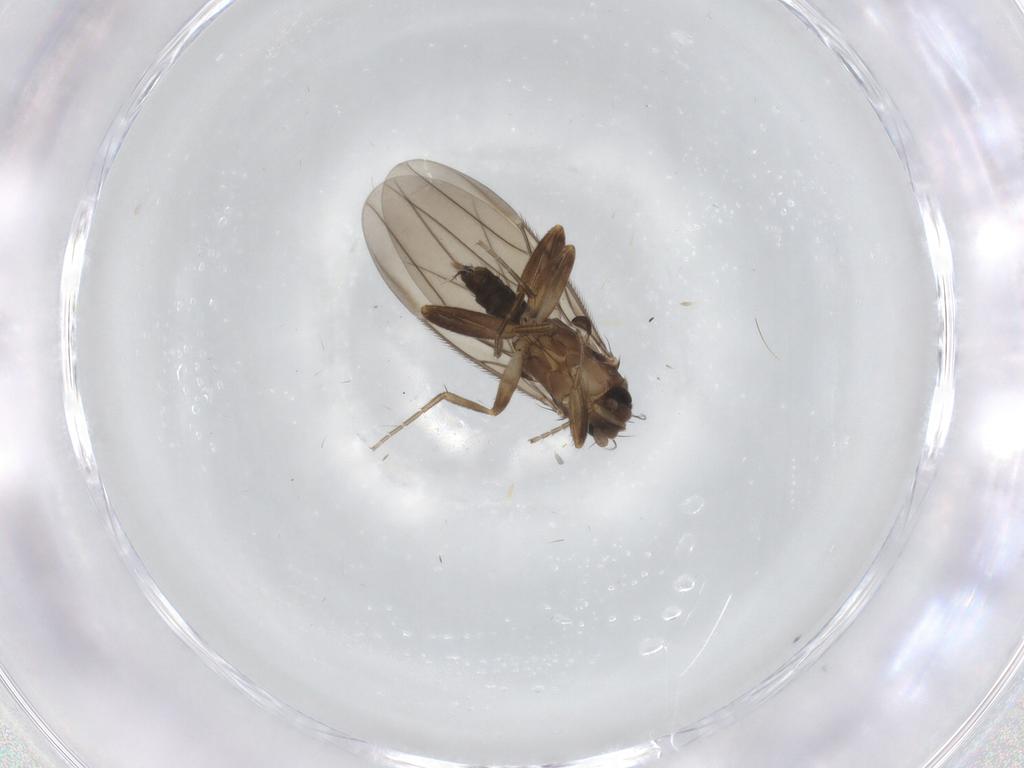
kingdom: Animalia
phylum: Arthropoda
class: Insecta
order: Diptera
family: Phoridae
